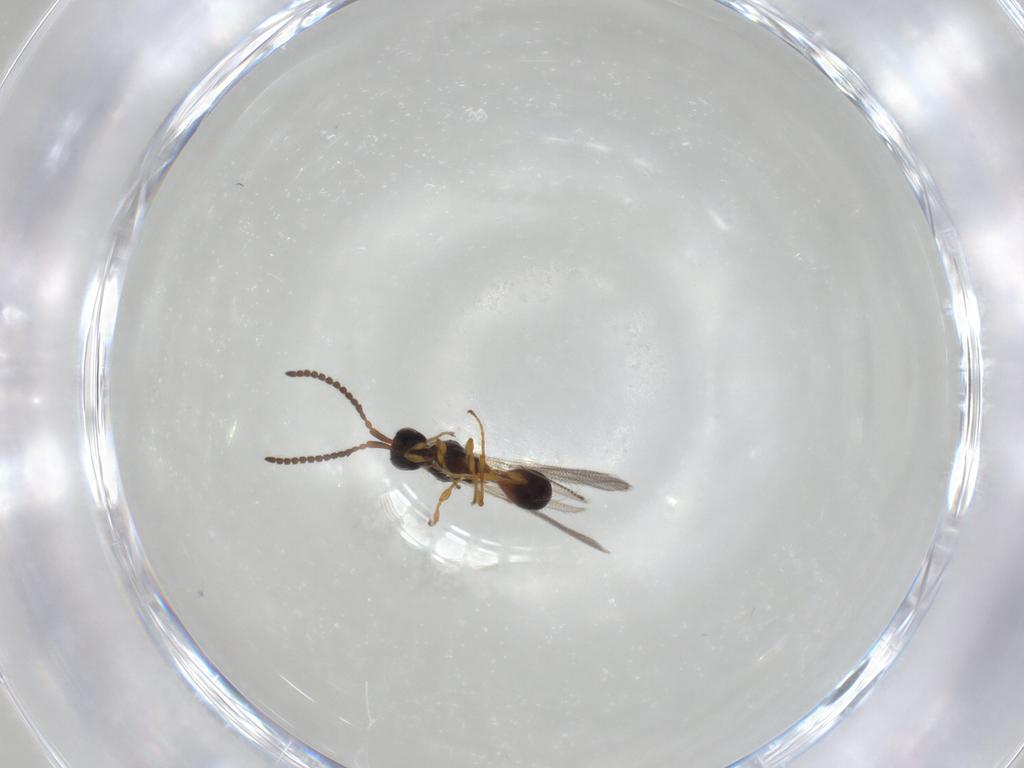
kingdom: Animalia
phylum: Arthropoda
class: Insecta
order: Hymenoptera
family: Diapriidae
